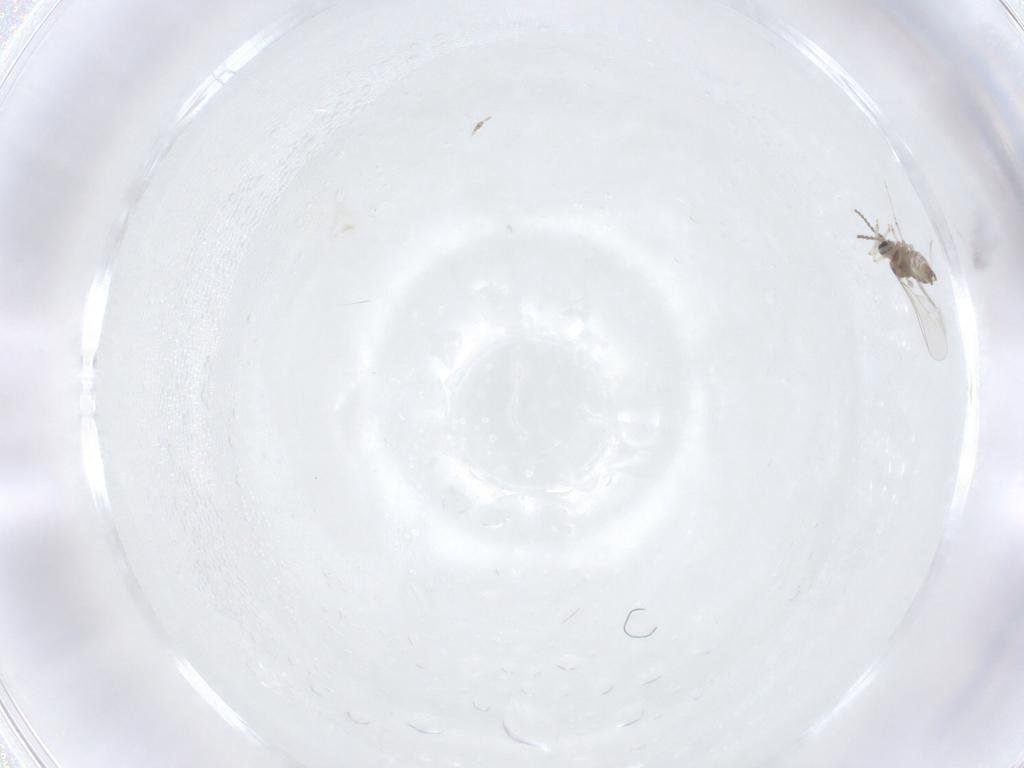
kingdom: Animalia
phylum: Arthropoda
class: Insecta
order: Diptera
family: Cecidomyiidae
